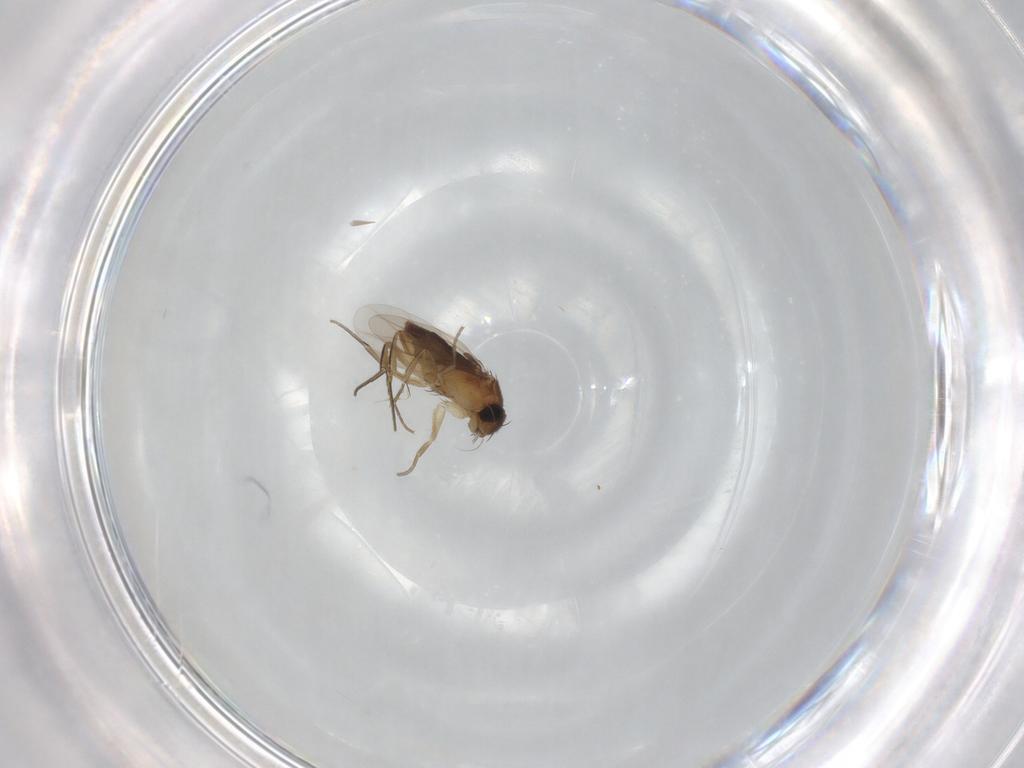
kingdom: Animalia
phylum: Arthropoda
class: Insecta
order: Diptera
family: Phoridae
